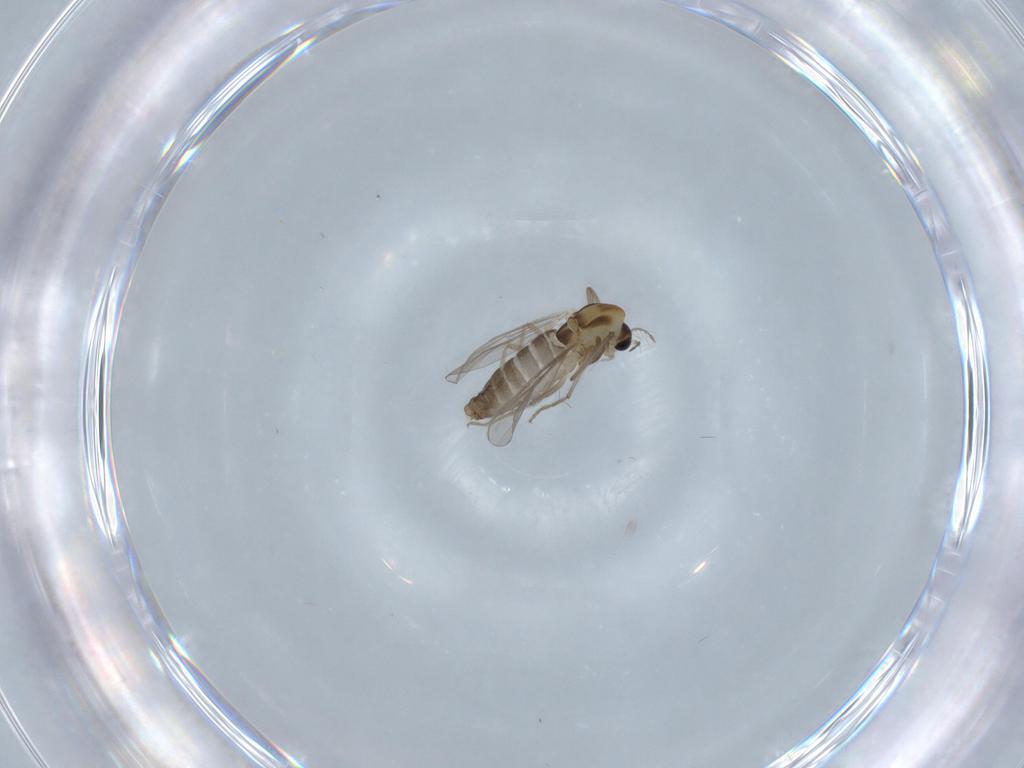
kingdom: Animalia
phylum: Arthropoda
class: Insecta
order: Diptera
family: Chironomidae
